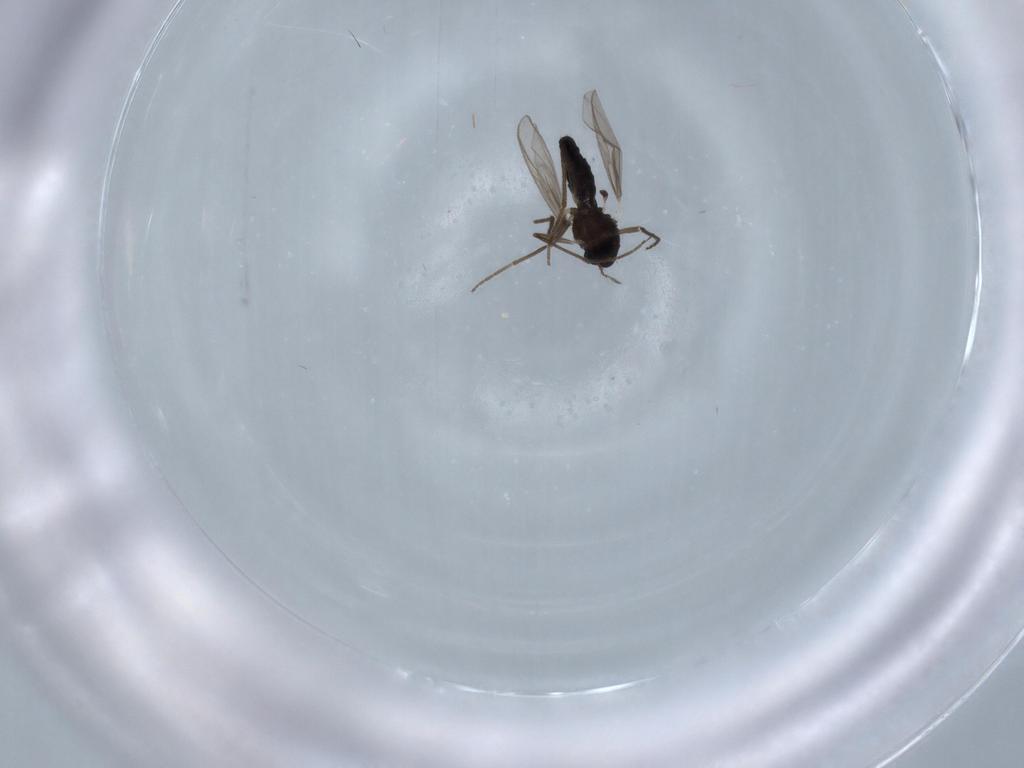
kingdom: Animalia
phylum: Arthropoda
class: Insecta
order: Diptera
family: Chironomidae
